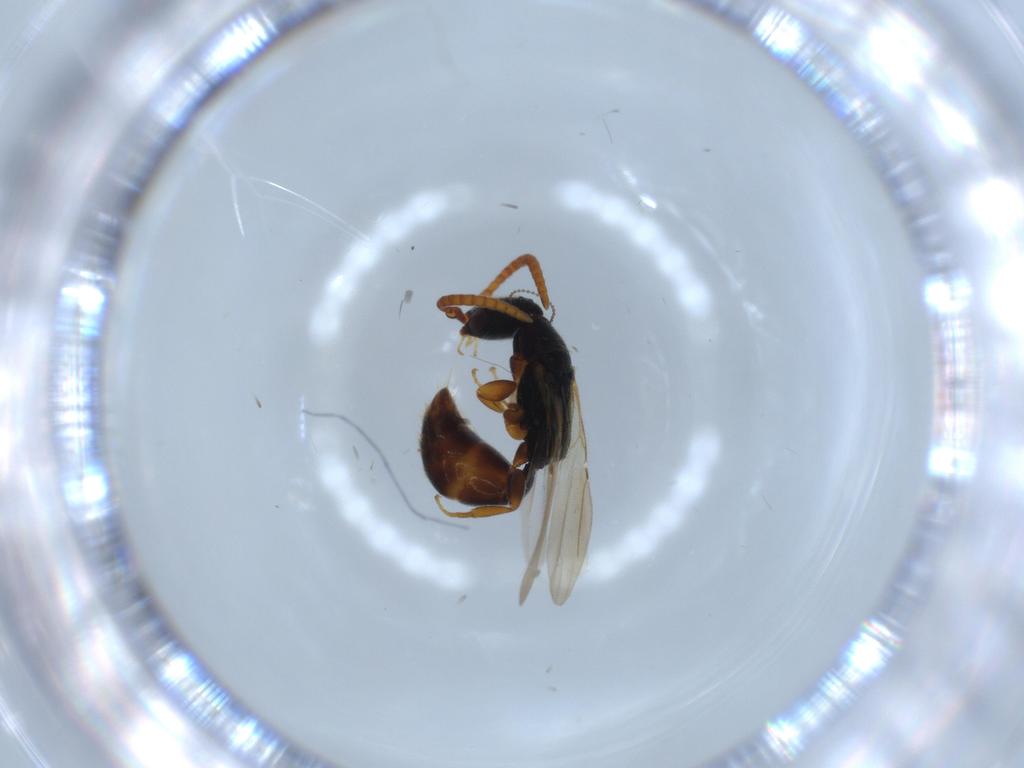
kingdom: Animalia
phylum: Arthropoda
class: Insecta
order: Hymenoptera
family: Bethylidae
